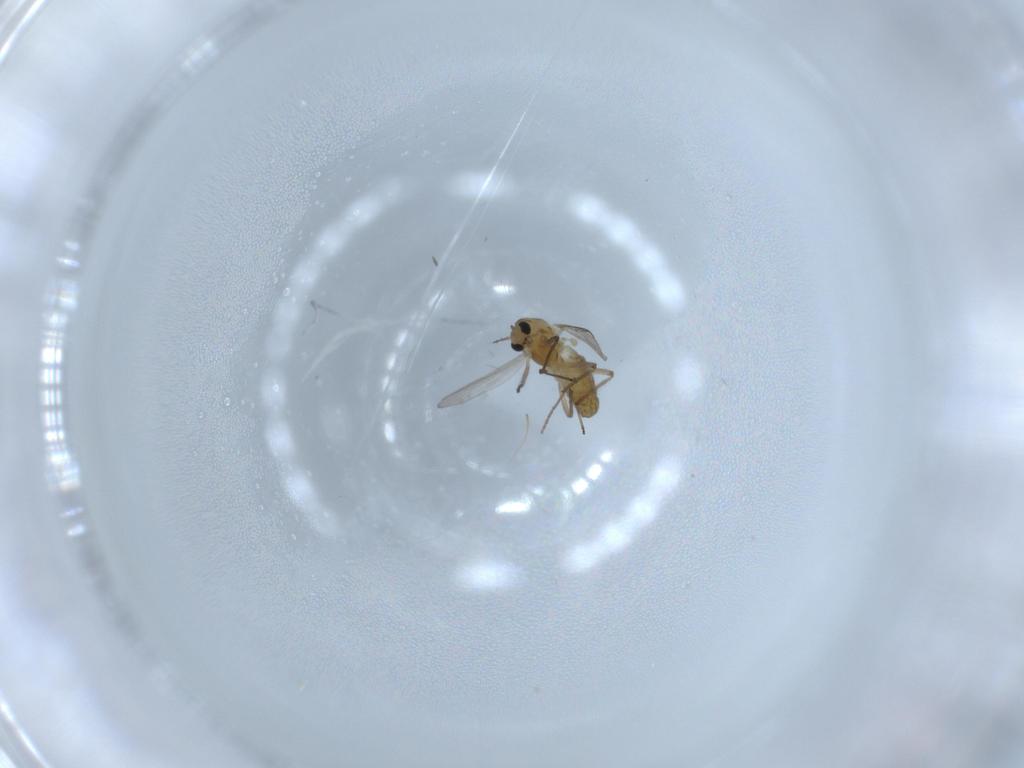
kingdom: Animalia
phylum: Arthropoda
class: Insecta
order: Diptera
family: Chironomidae
